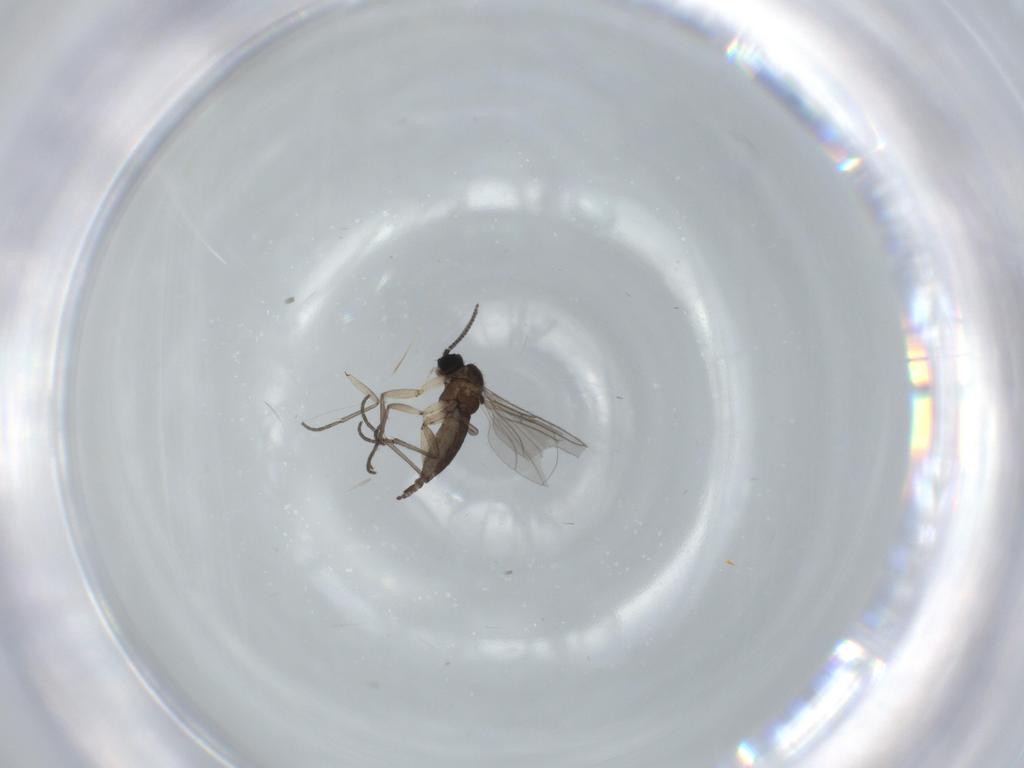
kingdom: Animalia
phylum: Arthropoda
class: Insecta
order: Diptera
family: Sciaridae
